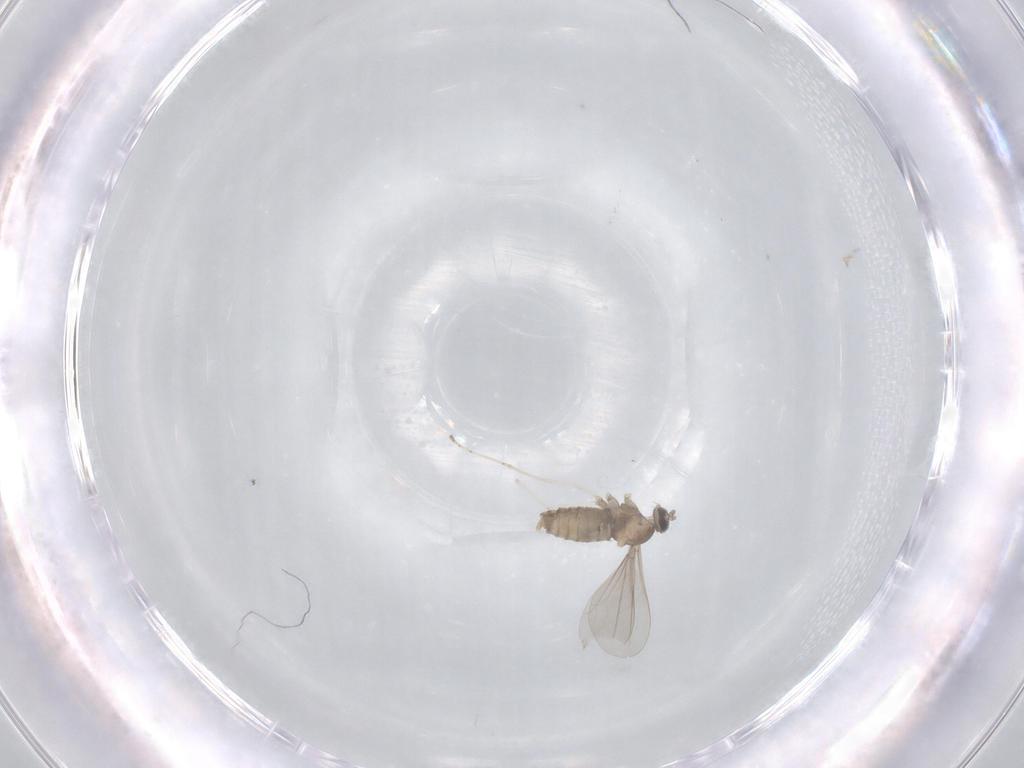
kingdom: Animalia
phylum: Arthropoda
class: Insecta
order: Diptera
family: Cecidomyiidae
